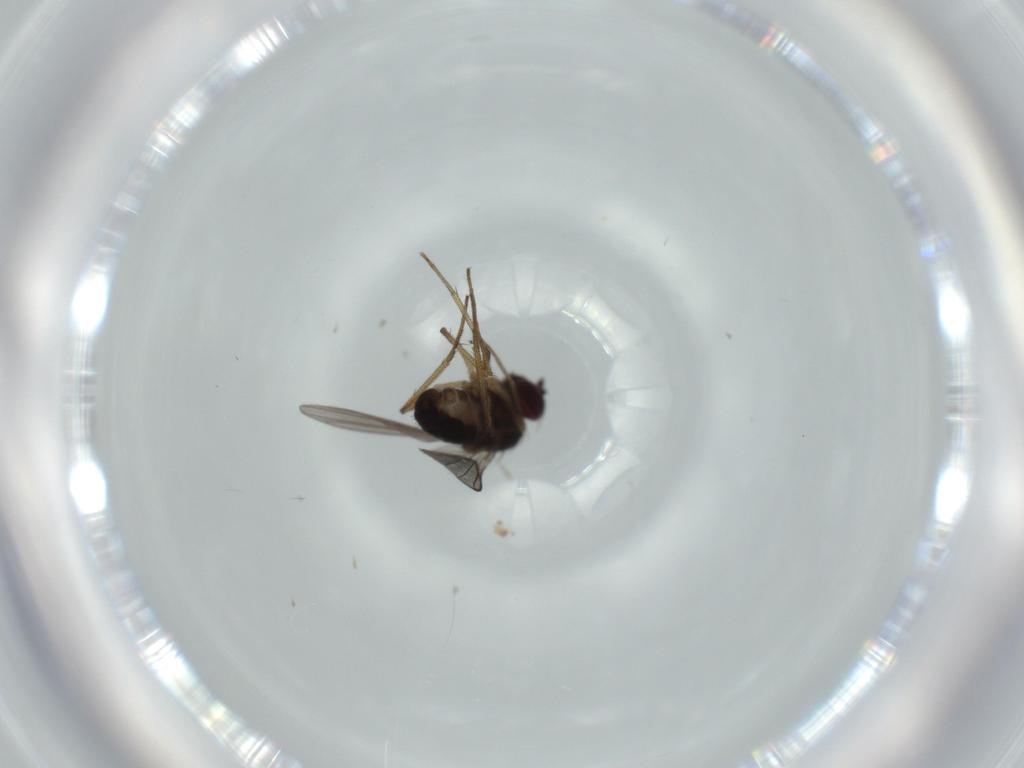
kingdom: Animalia
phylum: Arthropoda
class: Insecta
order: Diptera
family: Dolichopodidae
